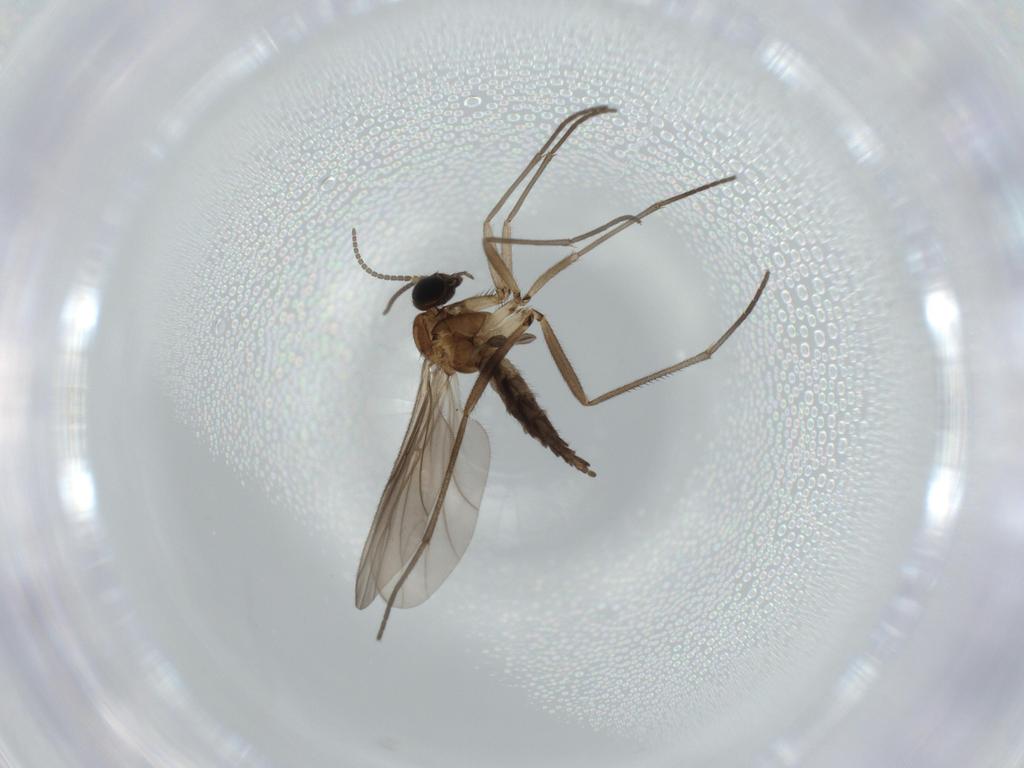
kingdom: Animalia
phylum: Arthropoda
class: Insecta
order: Diptera
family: Sciaridae
